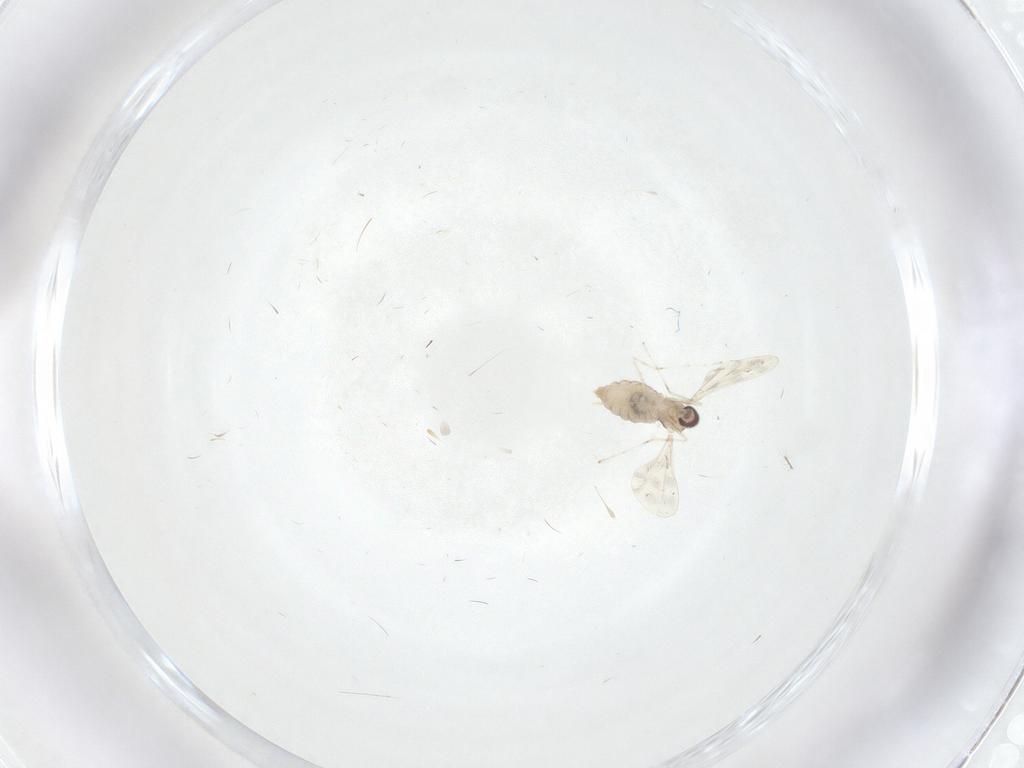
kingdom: Animalia
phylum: Arthropoda
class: Insecta
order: Diptera
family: Cecidomyiidae
